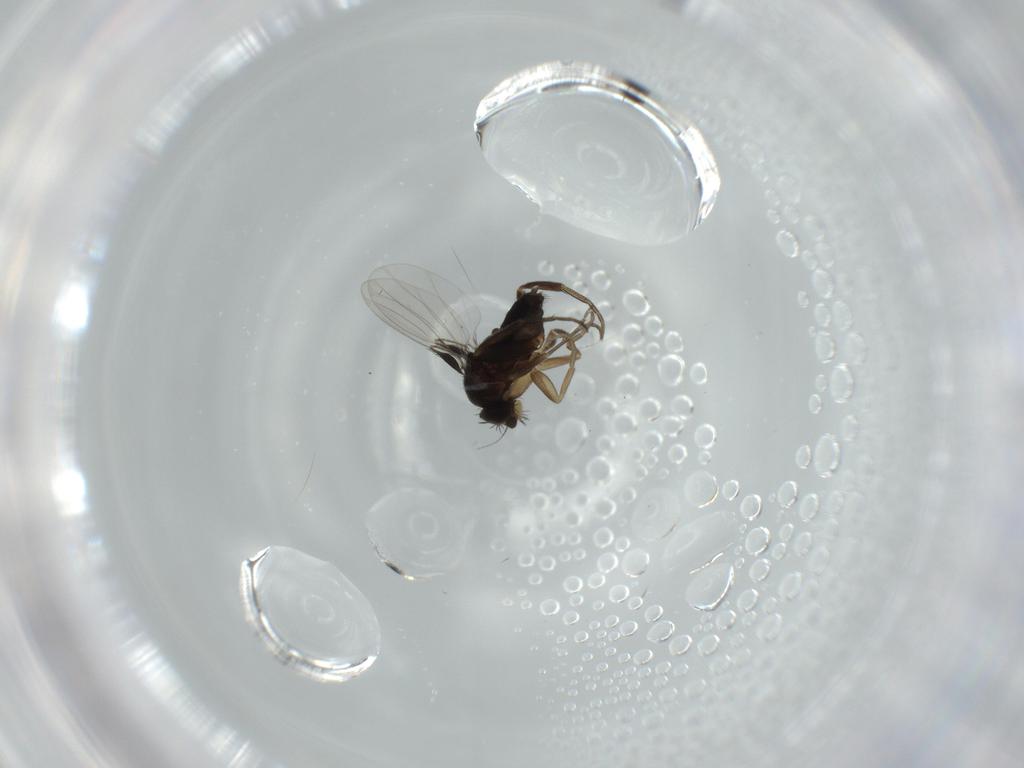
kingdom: Animalia
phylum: Arthropoda
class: Insecta
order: Diptera
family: Phoridae
